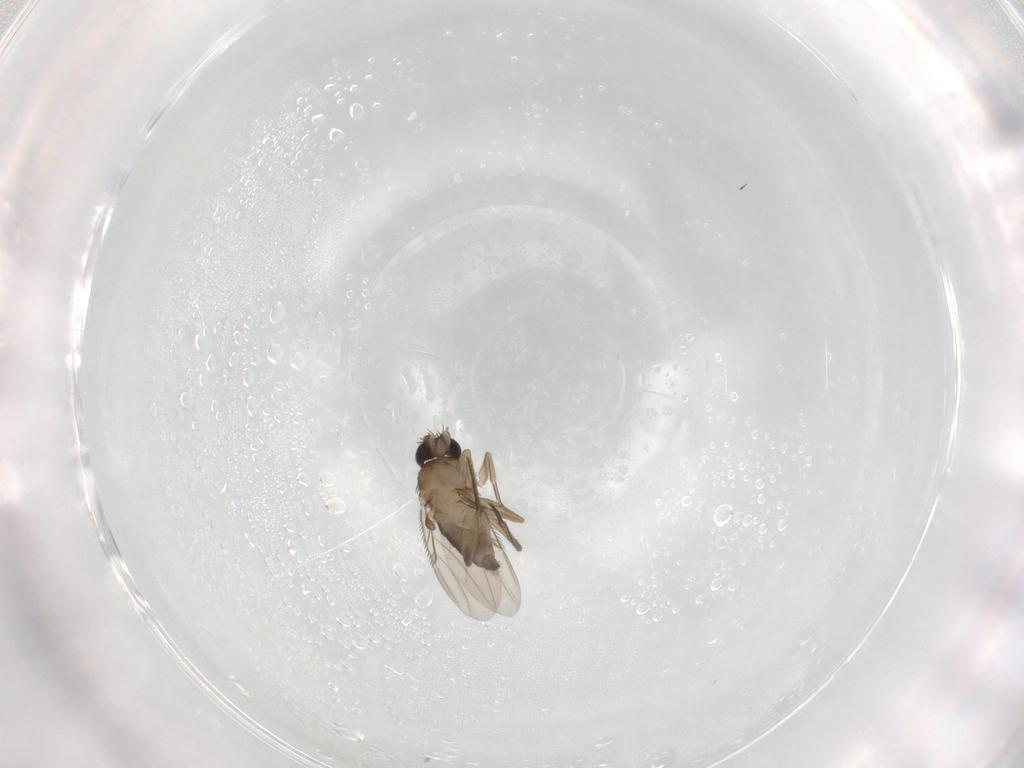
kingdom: Animalia
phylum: Arthropoda
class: Insecta
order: Diptera
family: Phoridae
